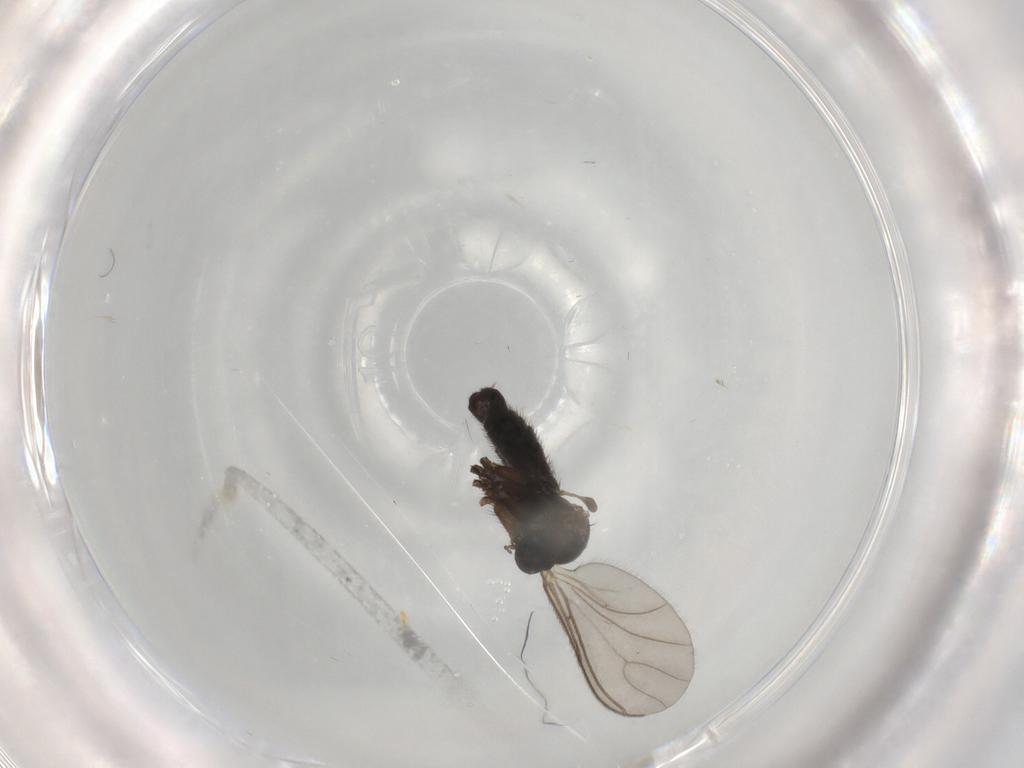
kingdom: Animalia
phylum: Arthropoda
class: Insecta
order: Diptera
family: Sciaridae
